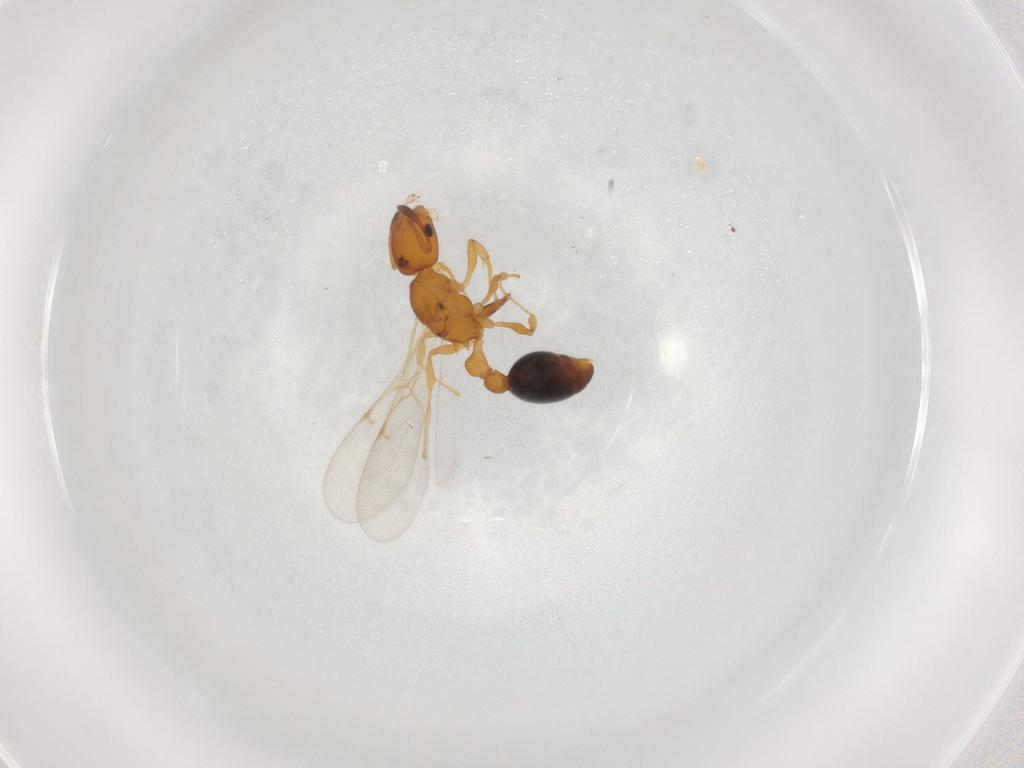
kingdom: Animalia
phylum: Arthropoda
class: Insecta
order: Hymenoptera
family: Formicidae
